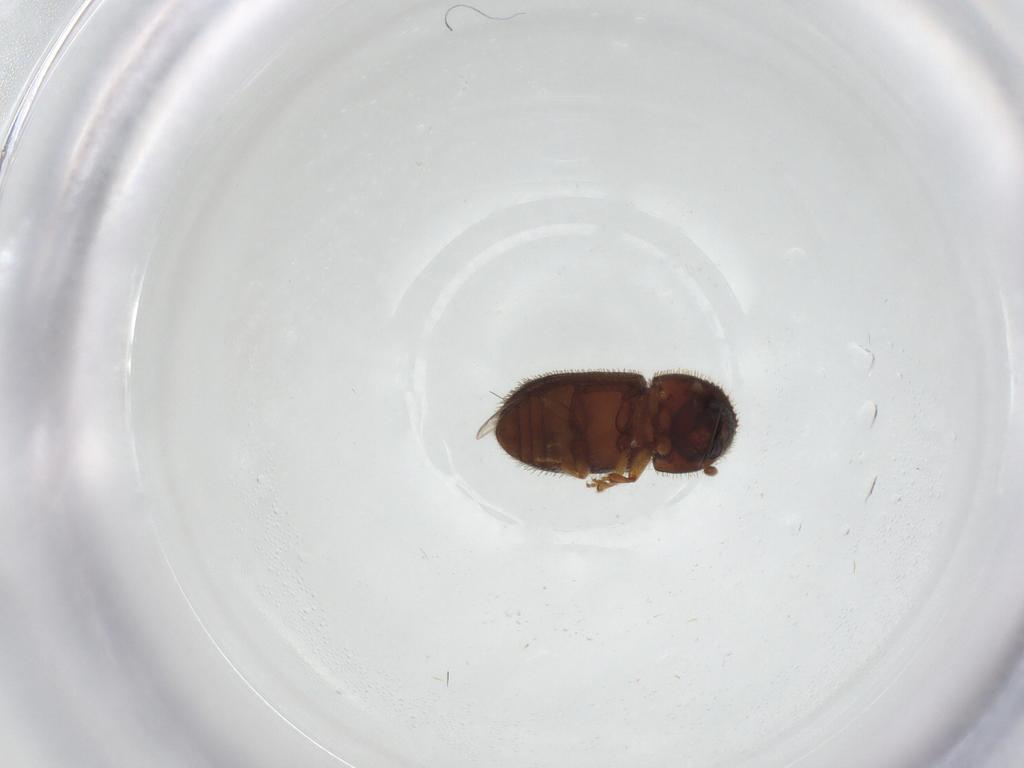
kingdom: Animalia
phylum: Arthropoda
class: Insecta
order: Coleoptera
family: Curculionidae
